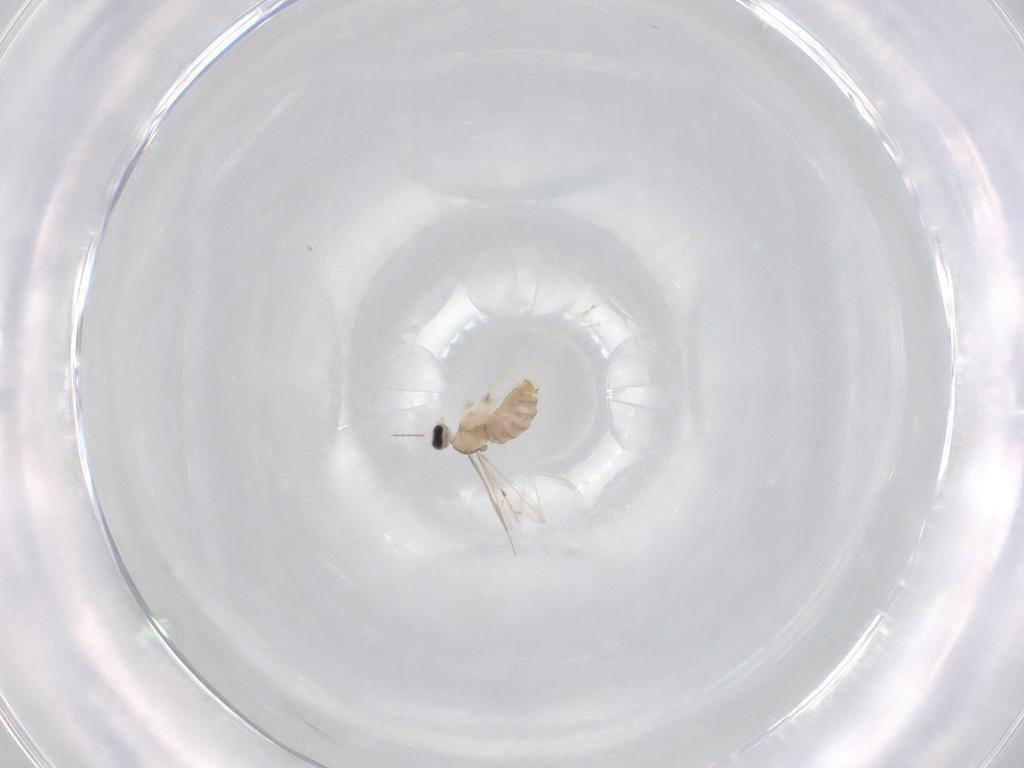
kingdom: Animalia
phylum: Arthropoda
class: Insecta
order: Diptera
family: Cecidomyiidae
